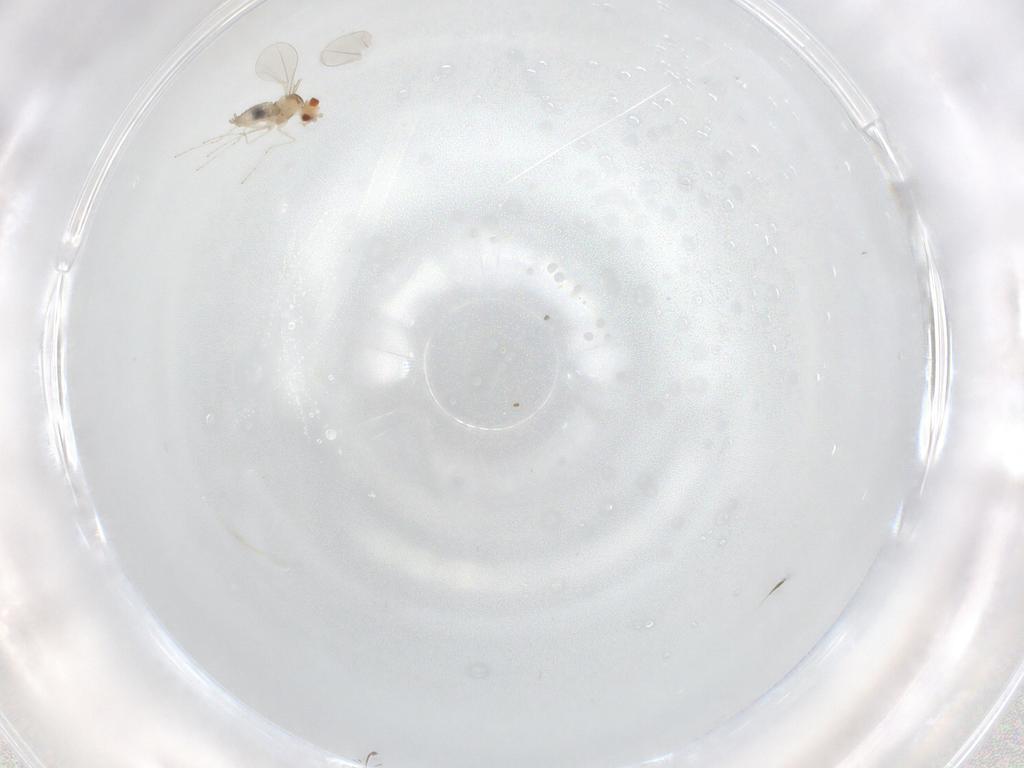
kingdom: Animalia
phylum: Arthropoda
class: Insecta
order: Diptera
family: Cecidomyiidae
